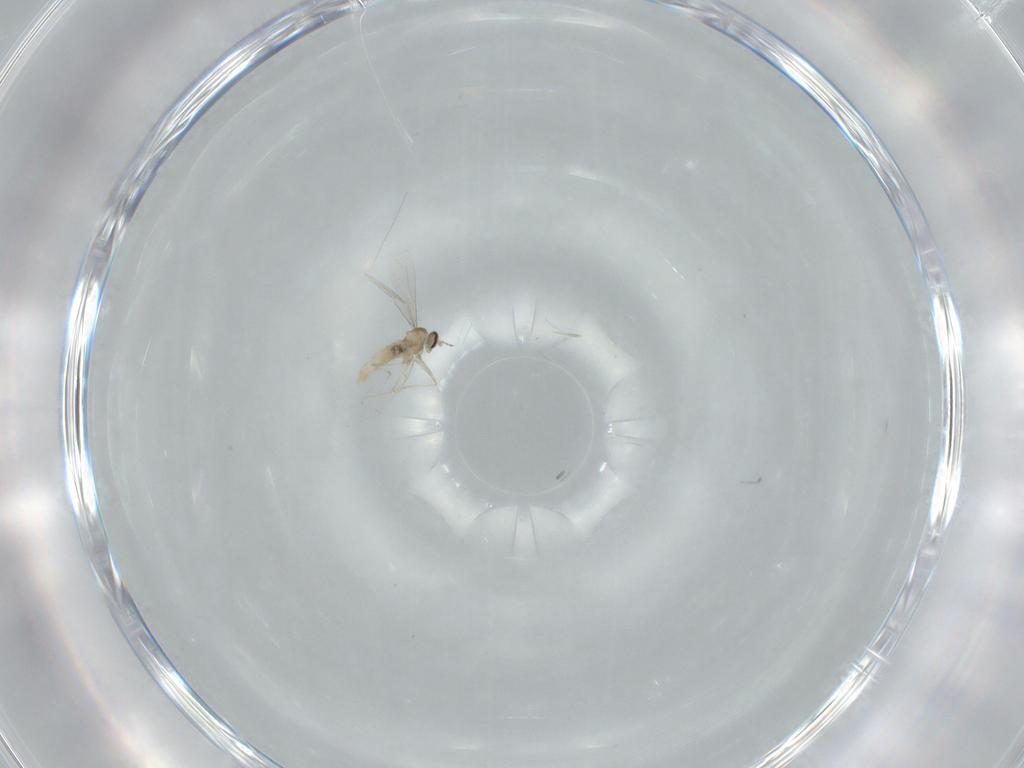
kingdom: Animalia
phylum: Arthropoda
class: Insecta
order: Diptera
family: Cecidomyiidae
